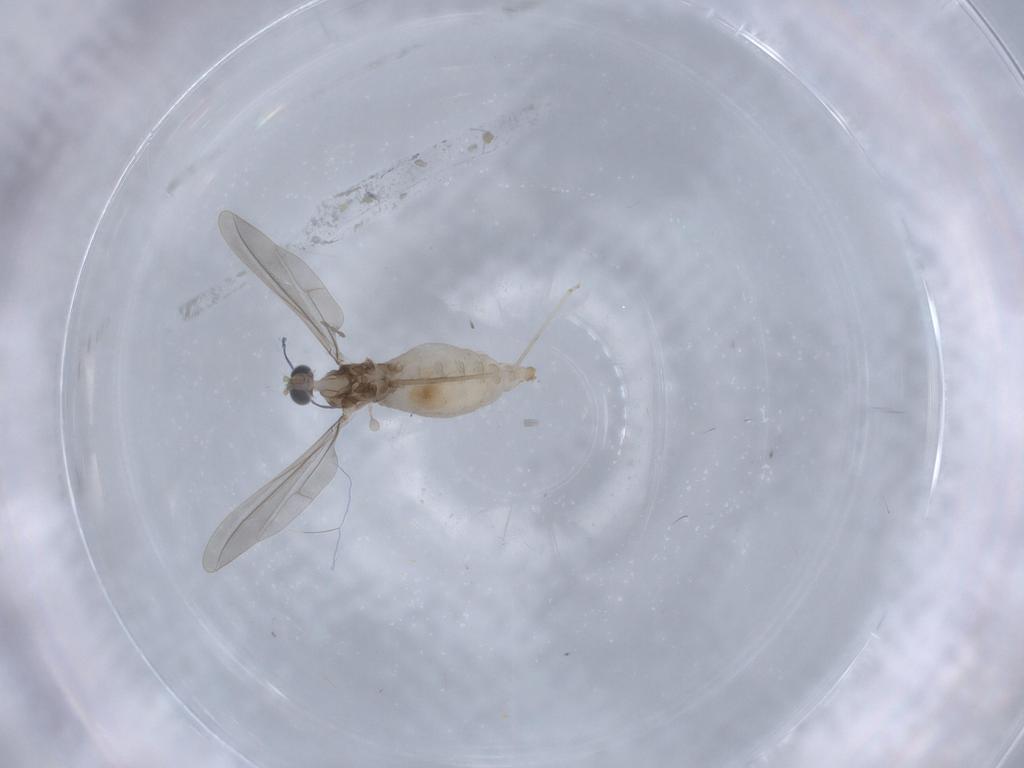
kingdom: Animalia
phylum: Arthropoda
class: Insecta
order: Diptera
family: Cecidomyiidae
